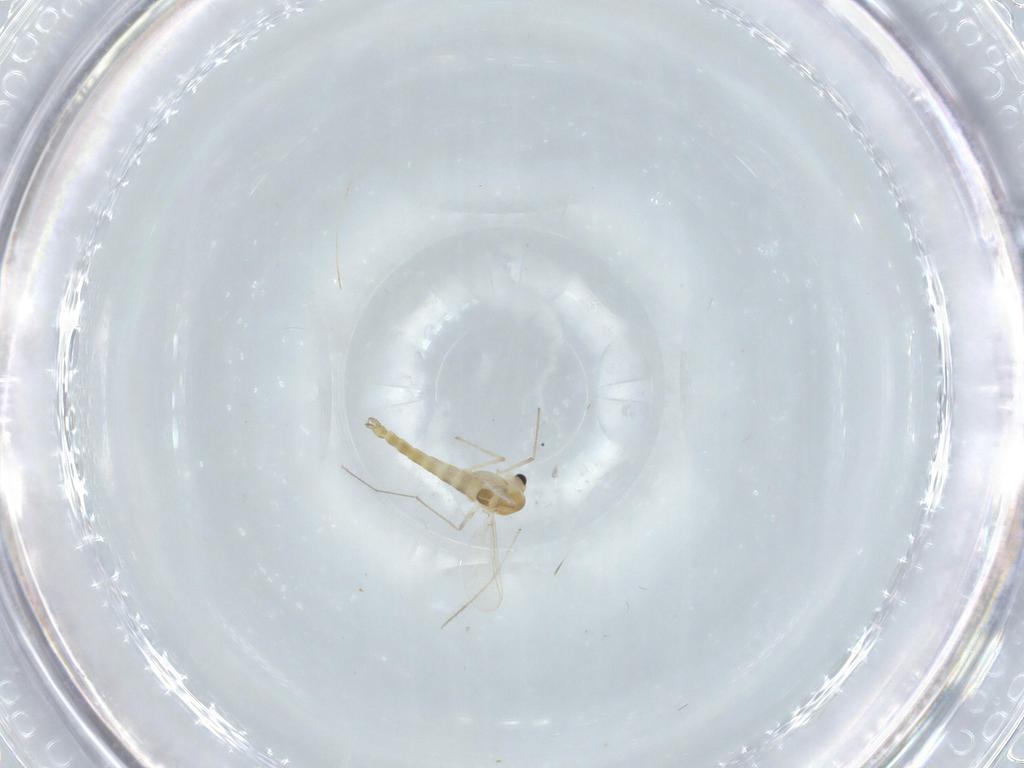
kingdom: Animalia
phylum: Arthropoda
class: Insecta
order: Diptera
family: Chironomidae
